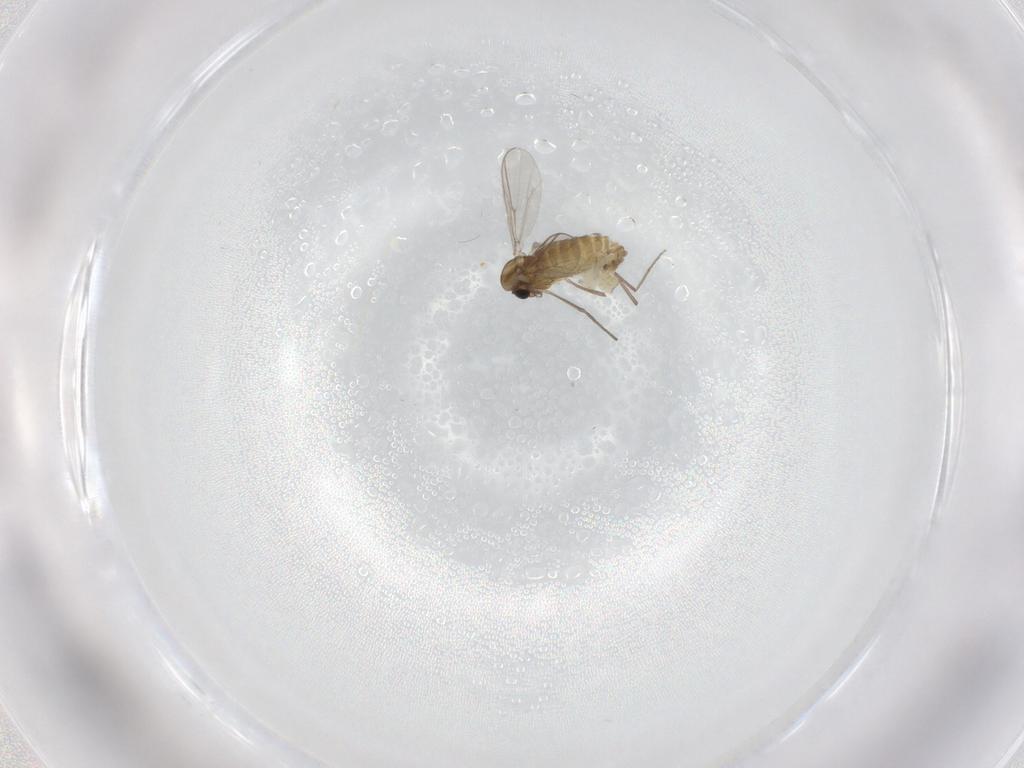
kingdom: Animalia
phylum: Arthropoda
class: Insecta
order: Diptera
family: Chironomidae
